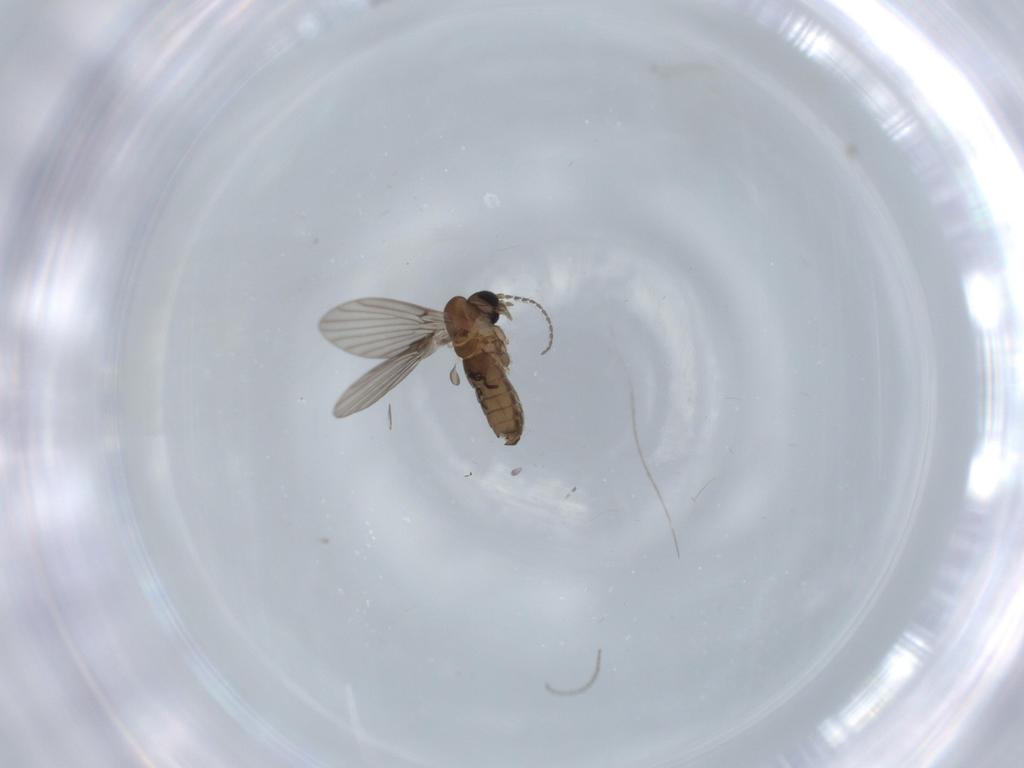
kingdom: Animalia
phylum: Arthropoda
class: Insecta
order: Diptera
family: Psychodidae
